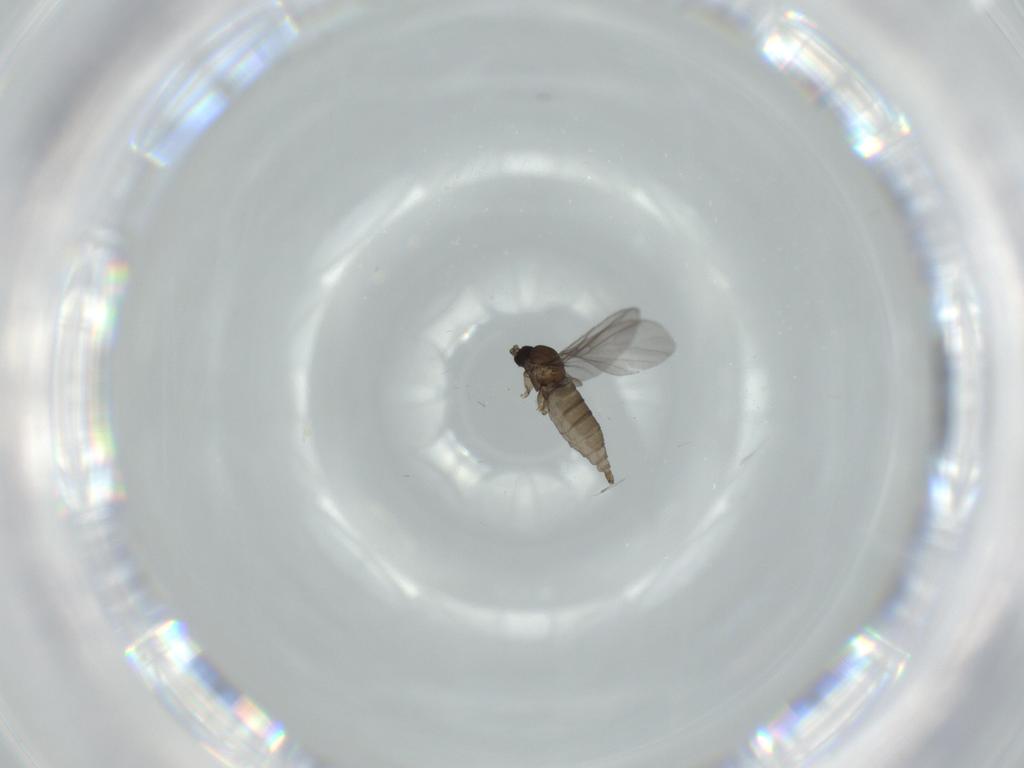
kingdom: Animalia
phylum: Arthropoda
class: Insecta
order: Diptera
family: Sciaridae
